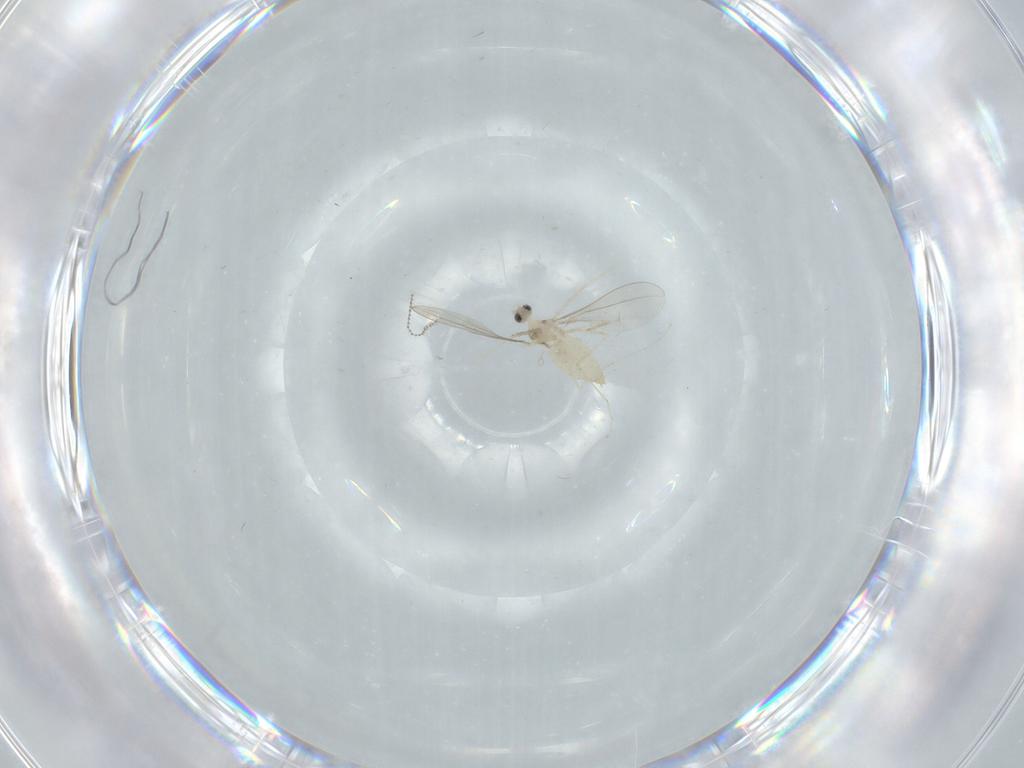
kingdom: Animalia
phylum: Arthropoda
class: Insecta
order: Diptera
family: Cecidomyiidae
